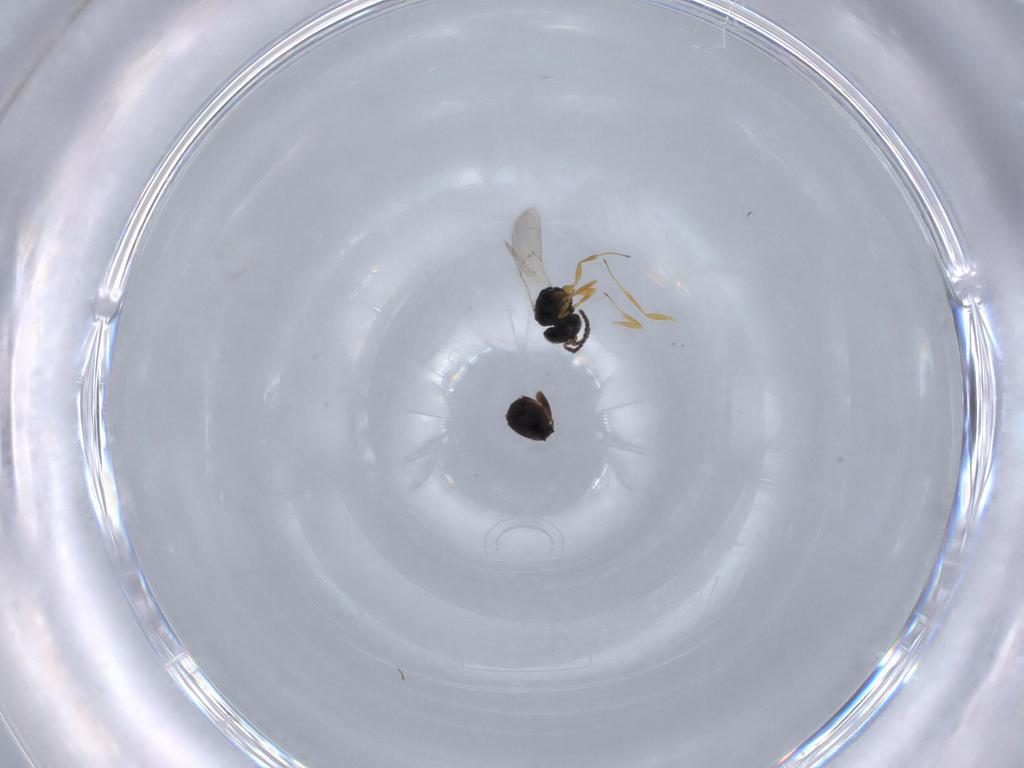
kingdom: Animalia
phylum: Arthropoda
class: Insecta
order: Hymenoptera
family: Scelionidae
